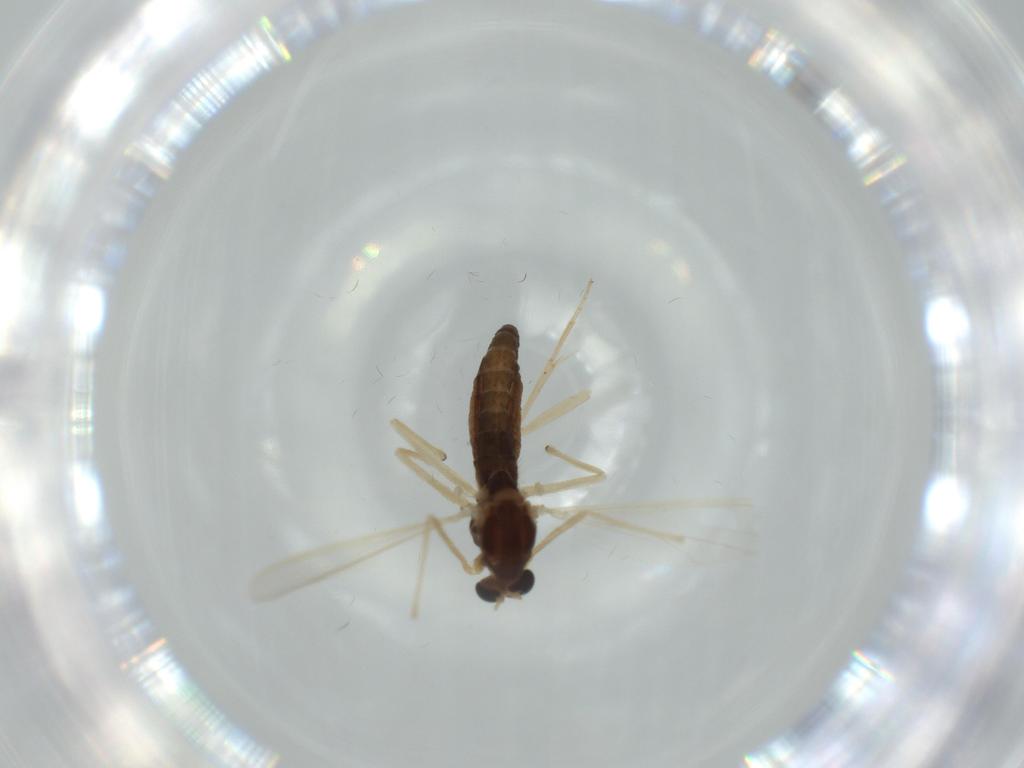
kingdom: Animalia
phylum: Arthropoda
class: Insecta
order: Diptera
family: Chironomidae
